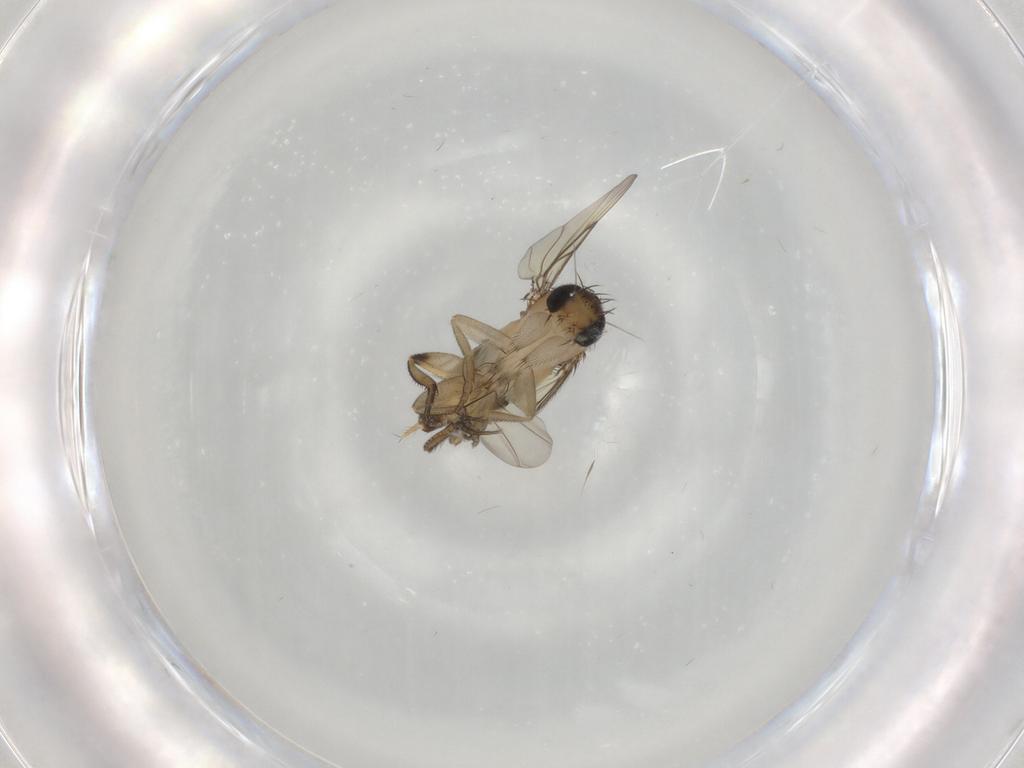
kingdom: Animalia
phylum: Arthropoda
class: Insecta
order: Diptera
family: Phoridae
